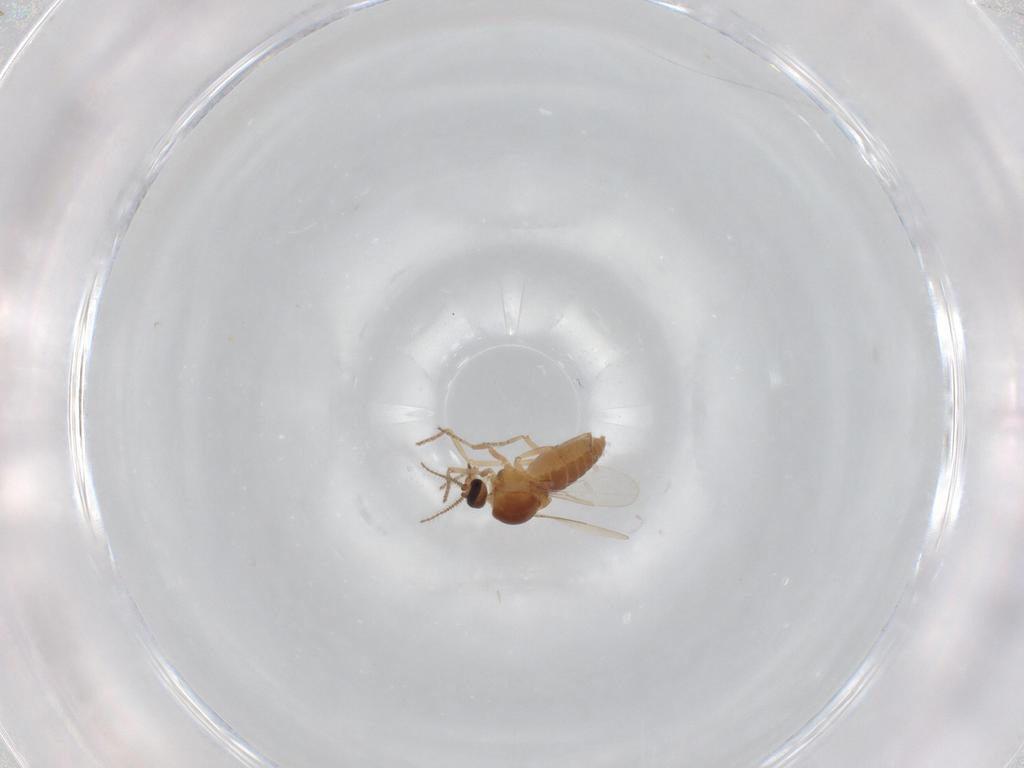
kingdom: Animalia
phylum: Arthropoda
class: Insecta
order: Diptera
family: Ceratopogonidae
